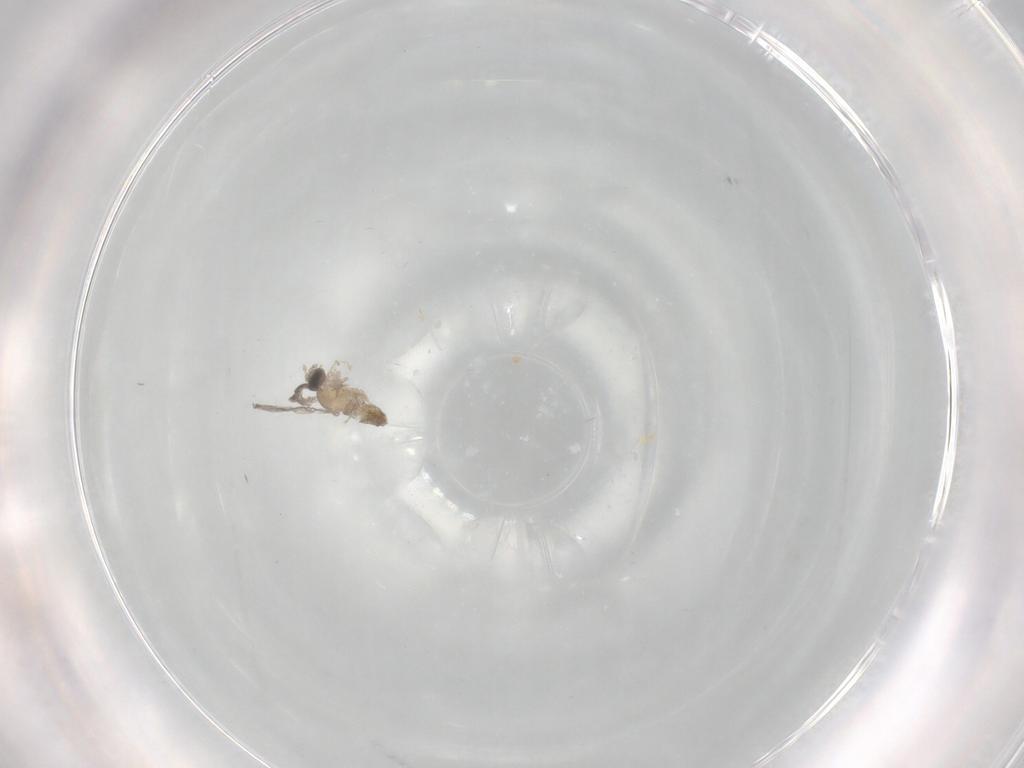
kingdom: Animalia
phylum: Arthropoda
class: Insecta
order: Diptera
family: Cecidomyiidae
